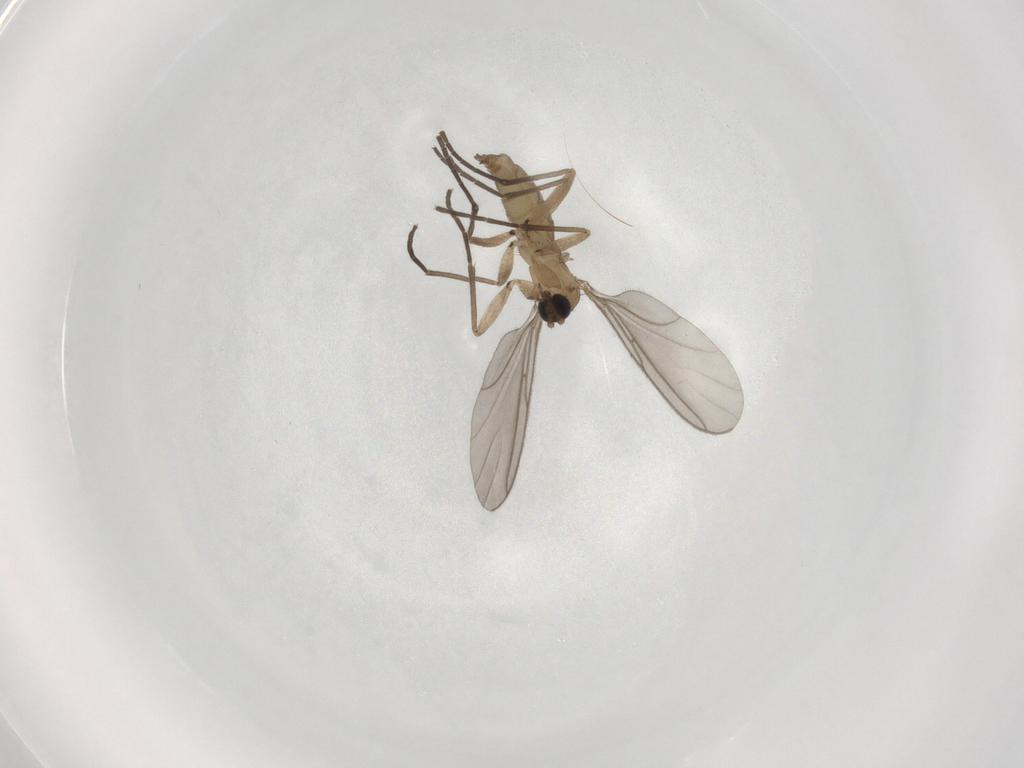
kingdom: Animalia
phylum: Arthropoda
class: Insecta
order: Diptera
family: Sciaridae
